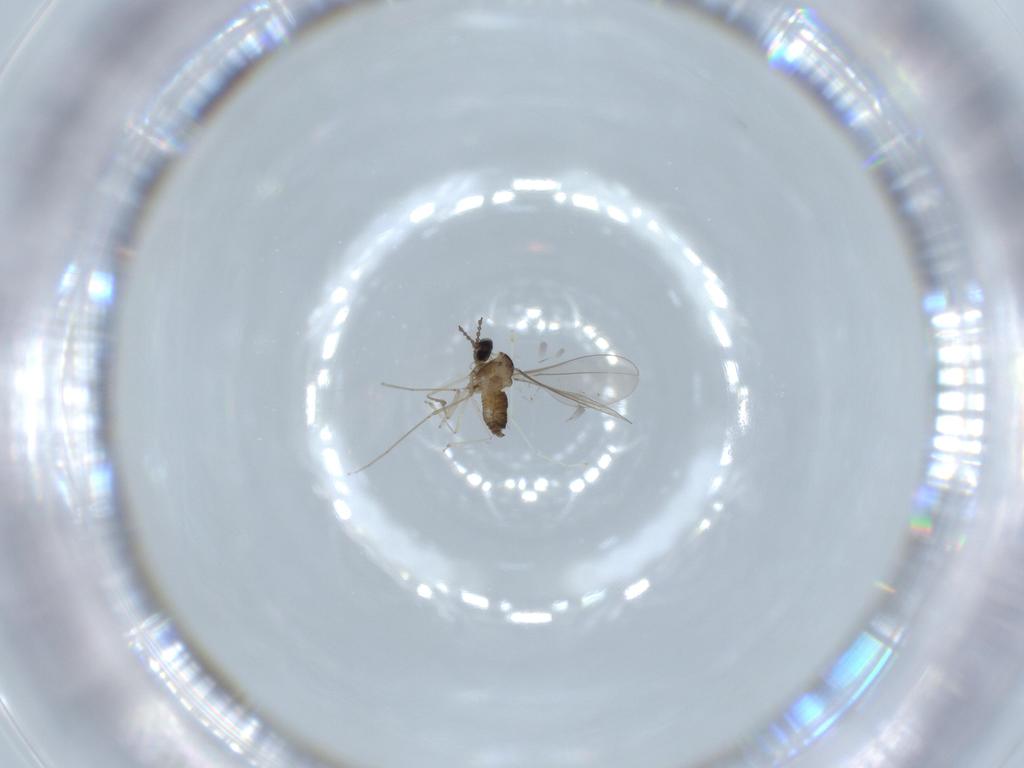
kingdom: Animalia
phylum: Arthropoda
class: Insecta
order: Diptera
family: Cecidomyiidae
